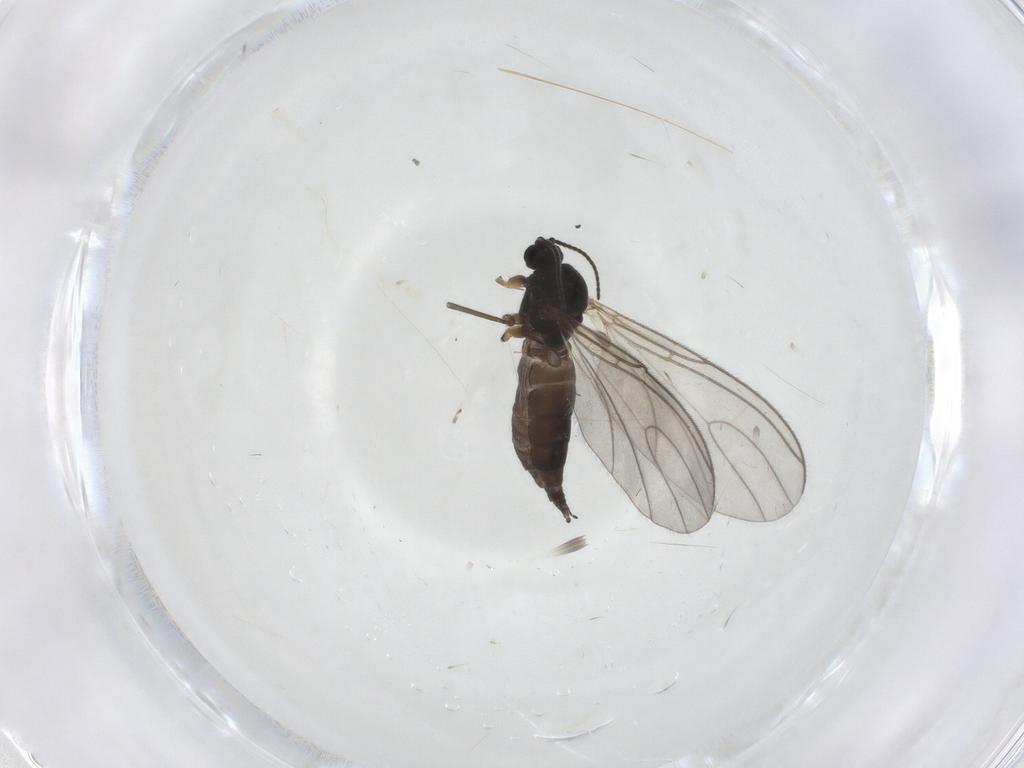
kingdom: Animalia
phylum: Arthropoda
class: Insecta
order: Diptera
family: Sciaridae
